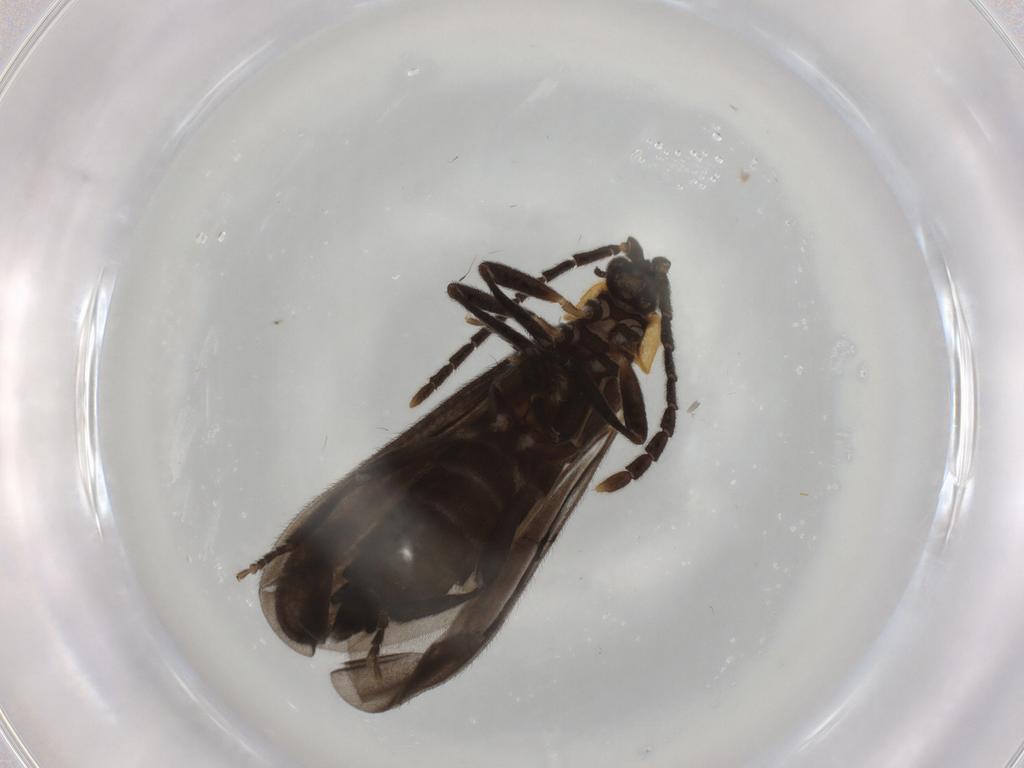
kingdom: Animalia
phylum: Arthropoda
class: Insecta
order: Coleoptera
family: Lycidae
